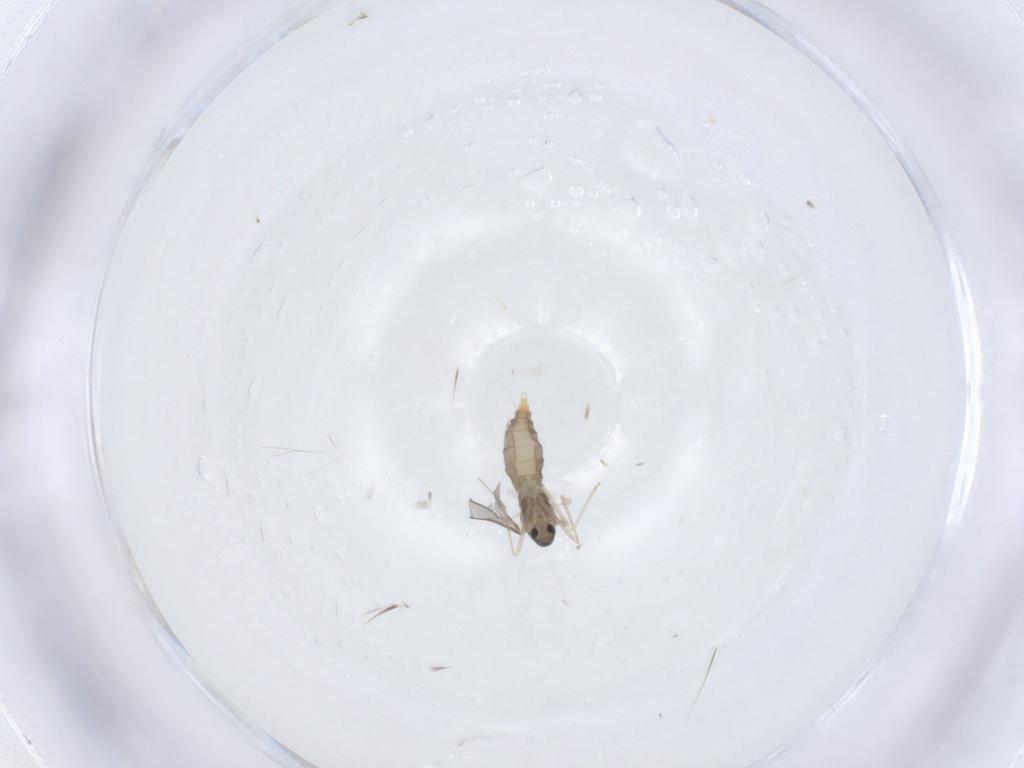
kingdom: Animalia
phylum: Arthropoda
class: Insecta
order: Diptera
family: Cecidomyiidae
